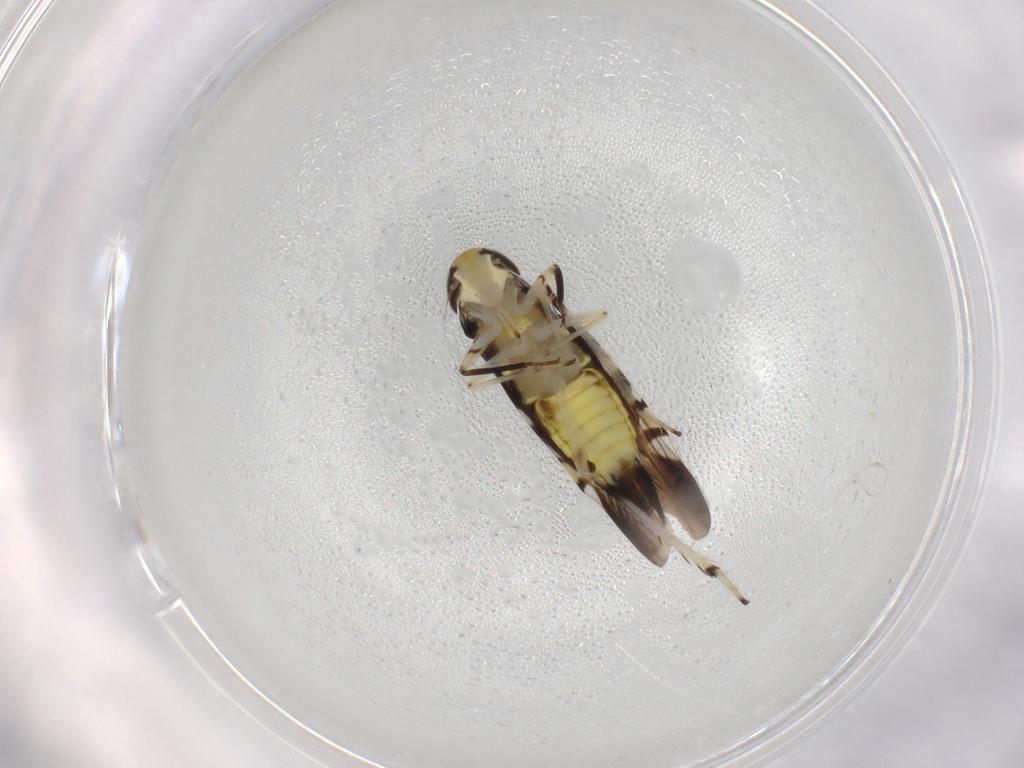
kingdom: Animalia
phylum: Arthropoda
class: Insecta
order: Hemiptera
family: Cicadellidae
